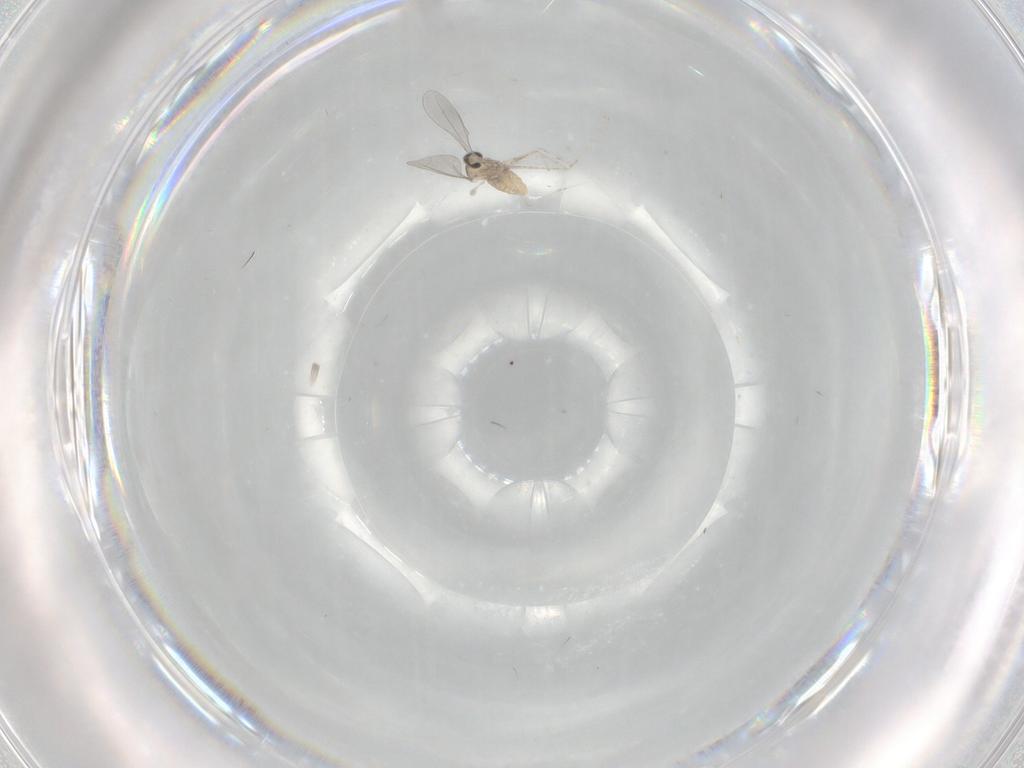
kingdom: Animalia
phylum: Arthropoda
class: Insecta
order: Diptera
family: Cecidomyiidae
